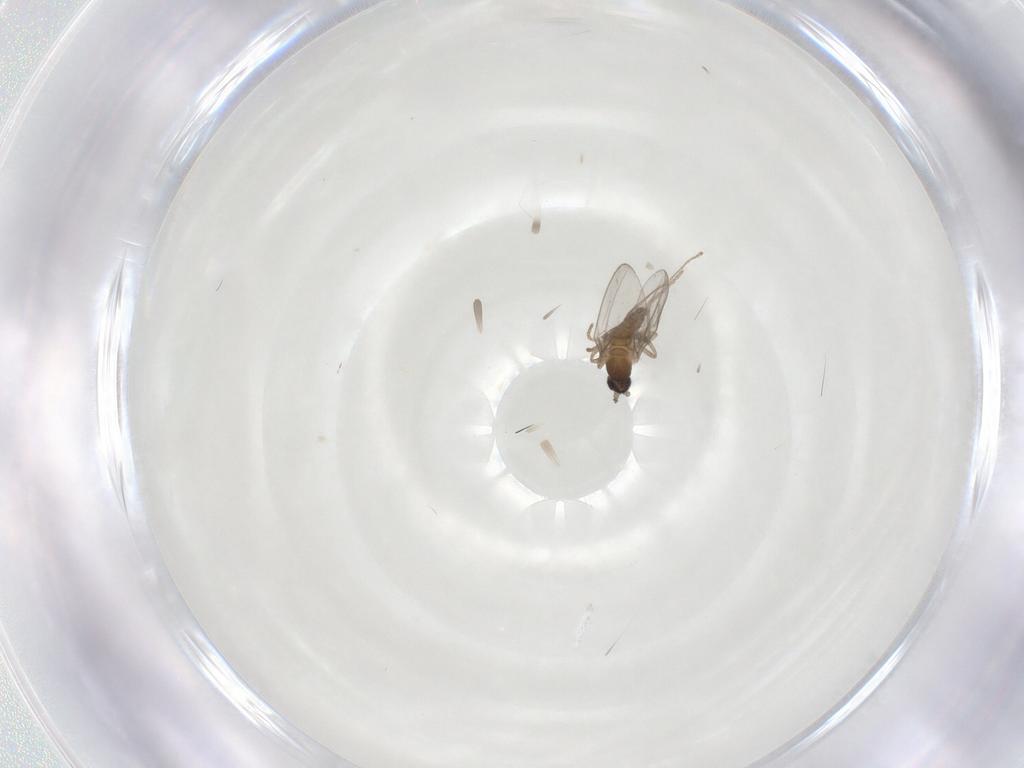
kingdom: Animalia
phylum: Arthropoda
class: Insecta
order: Diptera
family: Cecidomyiidae
